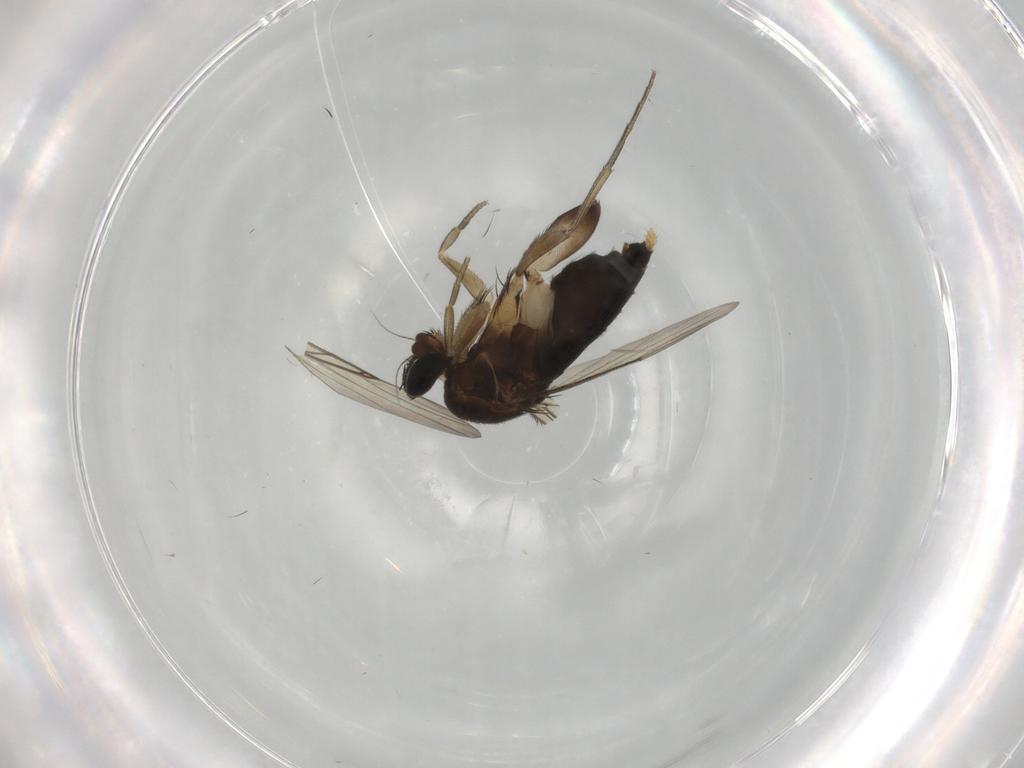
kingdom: Animalia
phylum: Arthropoda
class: Insecta
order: Diptera
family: Phoridae
